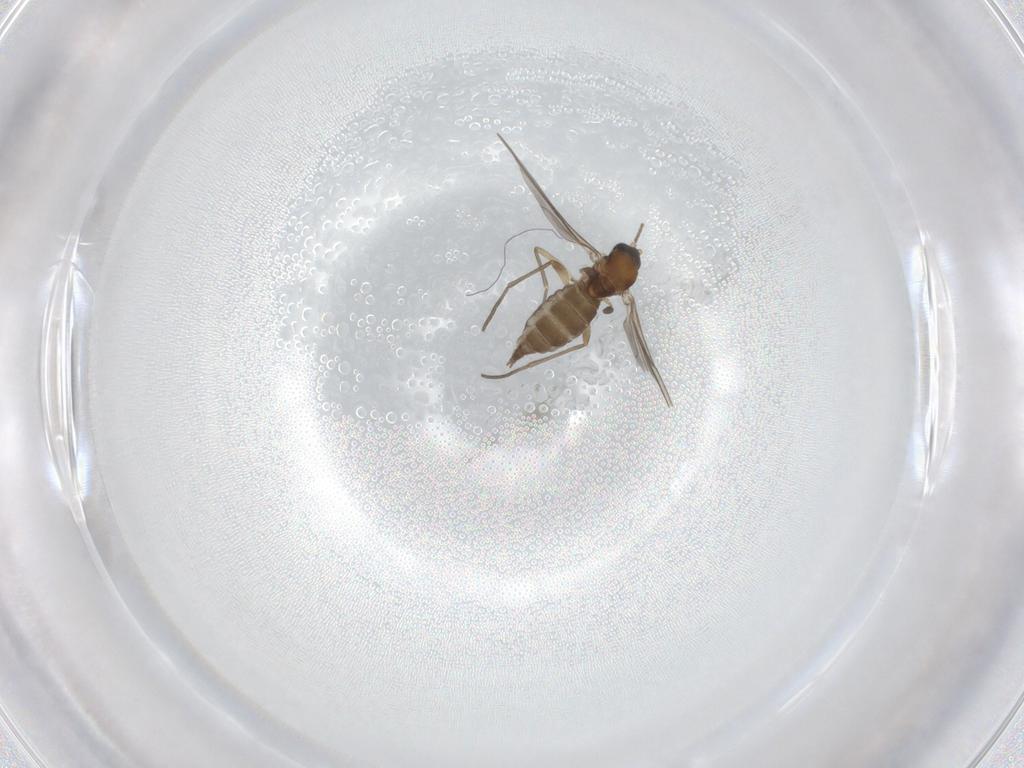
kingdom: Animalia
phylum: Arthropoda
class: Insecta
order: Diptera
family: Sciaridae
